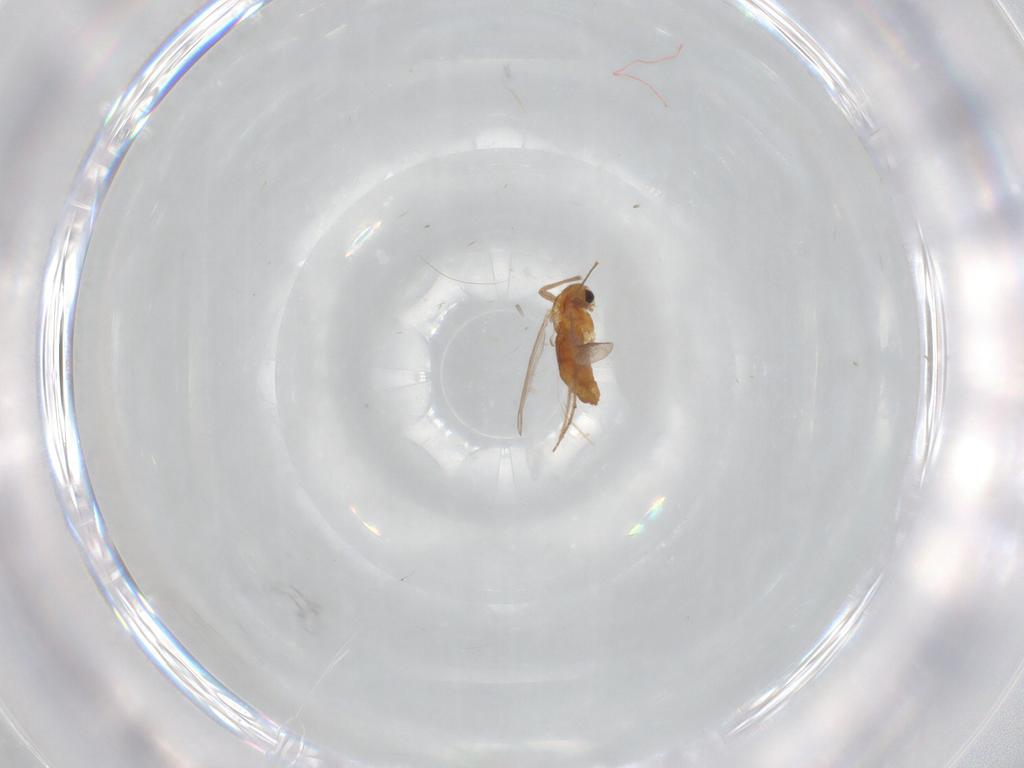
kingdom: Animalia
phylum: Arthropoda
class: Insecta
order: Diptera
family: Chironomidae
